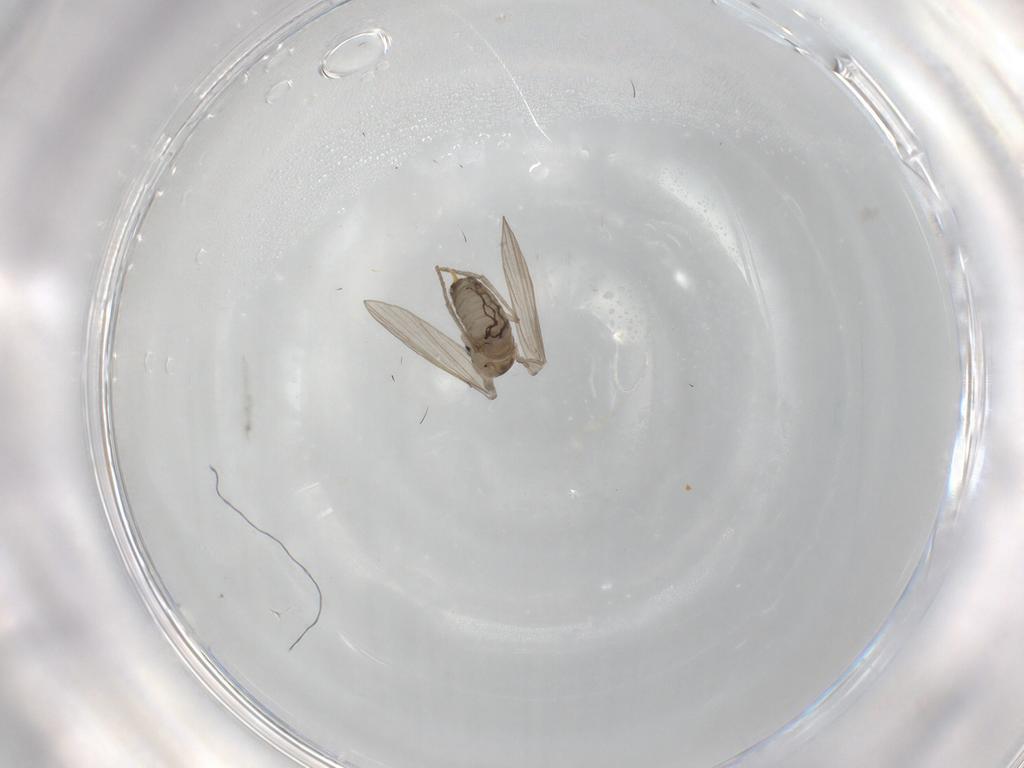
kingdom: Animalia
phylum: Arthropoda
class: Insecta
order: Diptera
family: Psychodidae
